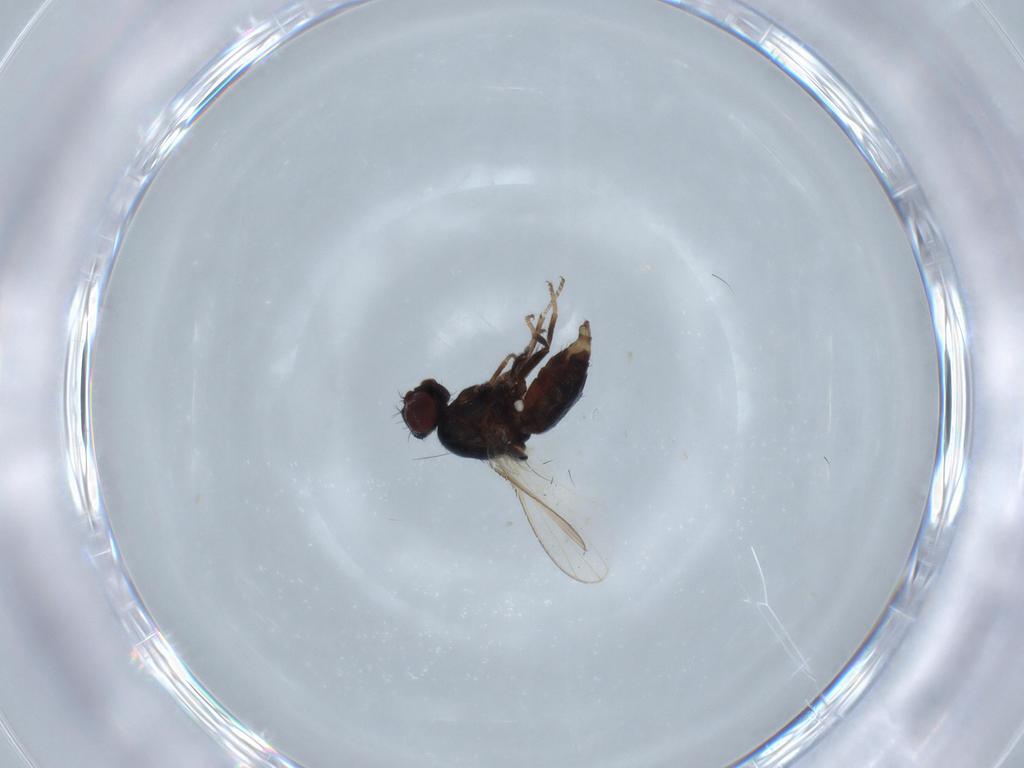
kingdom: Animalia
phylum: Arthropoda
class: Insecta
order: Diptera
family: Carnidae
